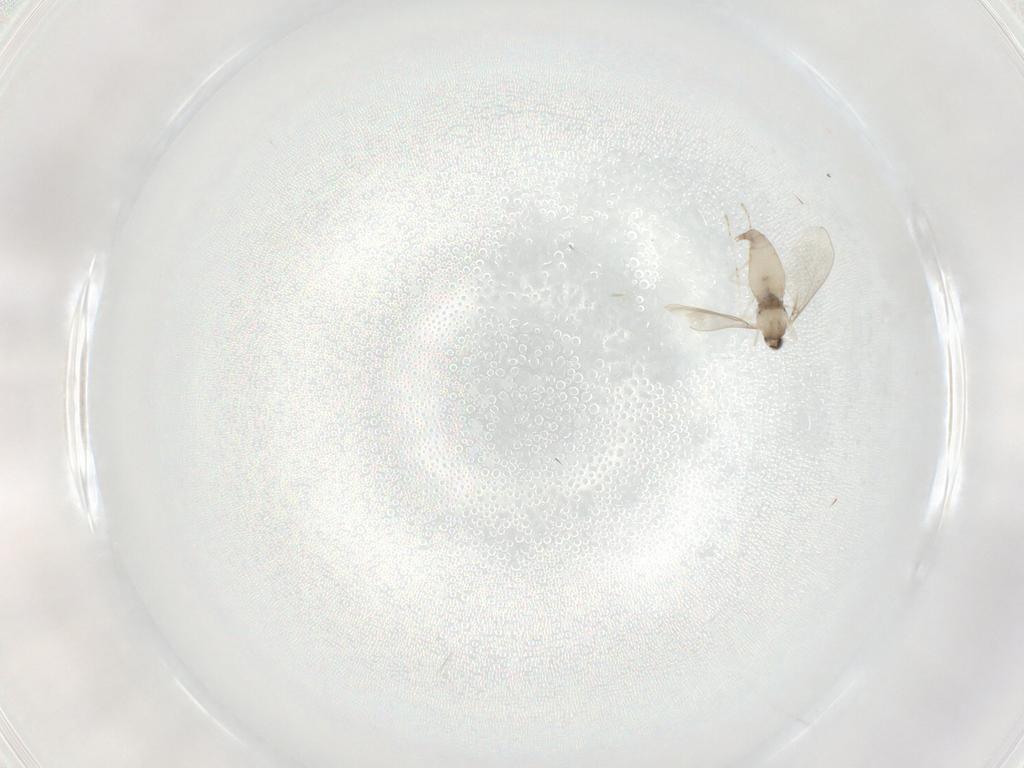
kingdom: Animalia
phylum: Arthropoda
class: Insecta
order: Diptera
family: Cecidomyiidae
